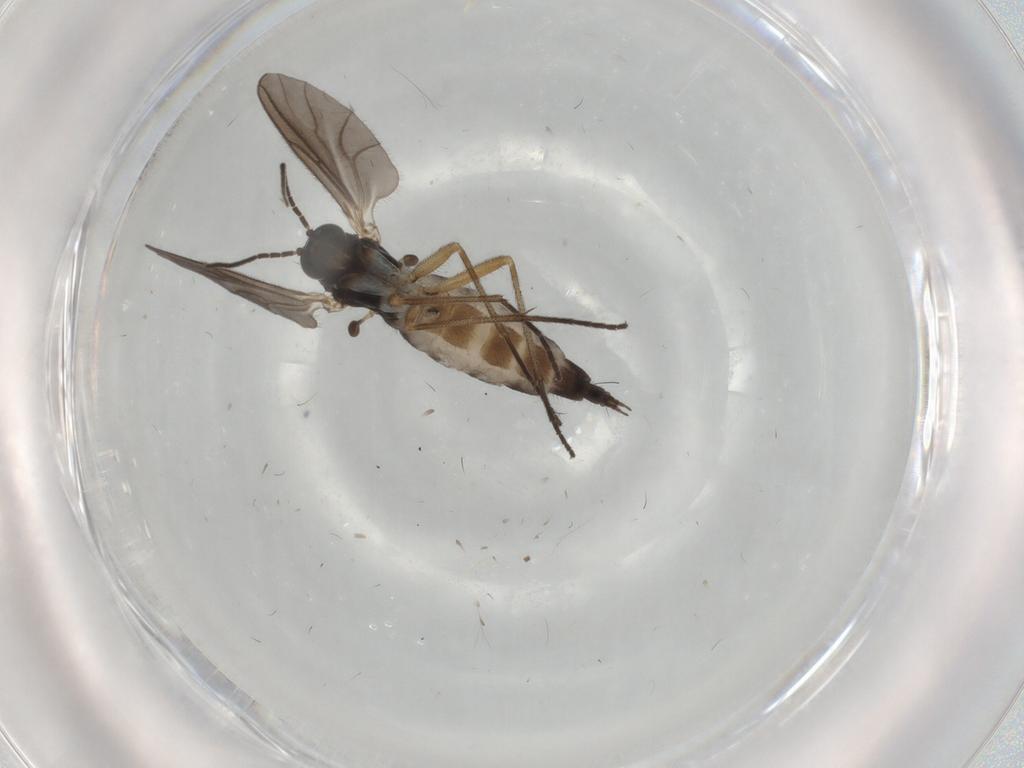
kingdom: Animalia
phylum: Arthropoda
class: Insecta
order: Diptera
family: Sciaridae
